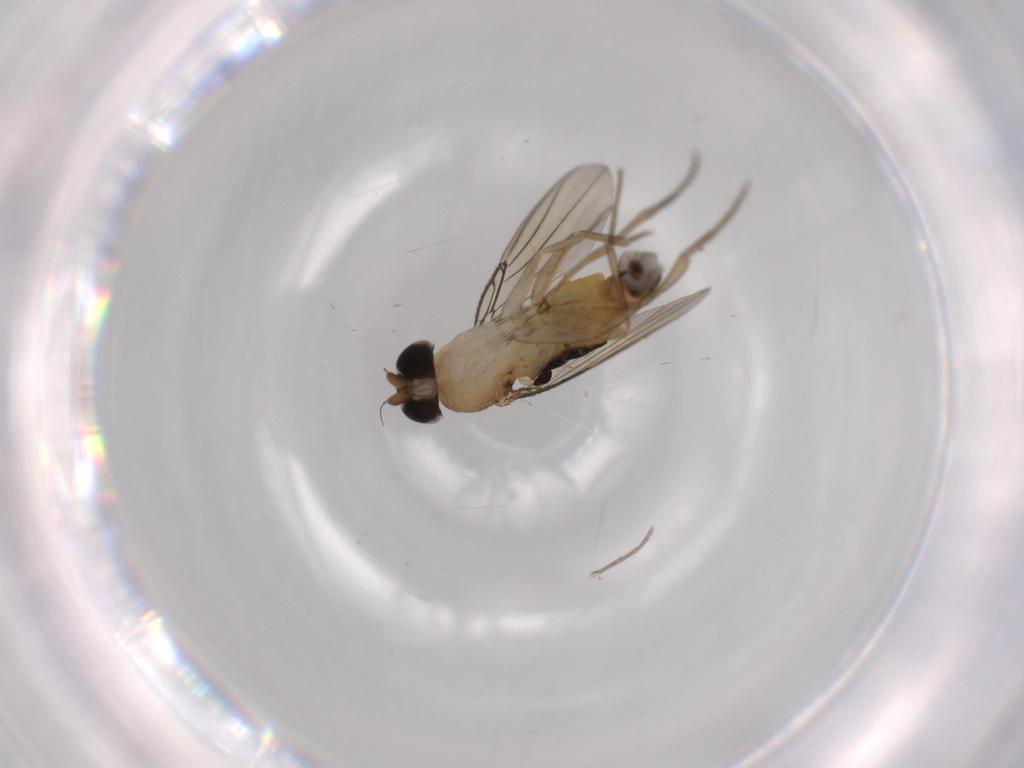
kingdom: Animalia
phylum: Arthropoda
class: Insecta
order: Diptera
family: Phoridae
